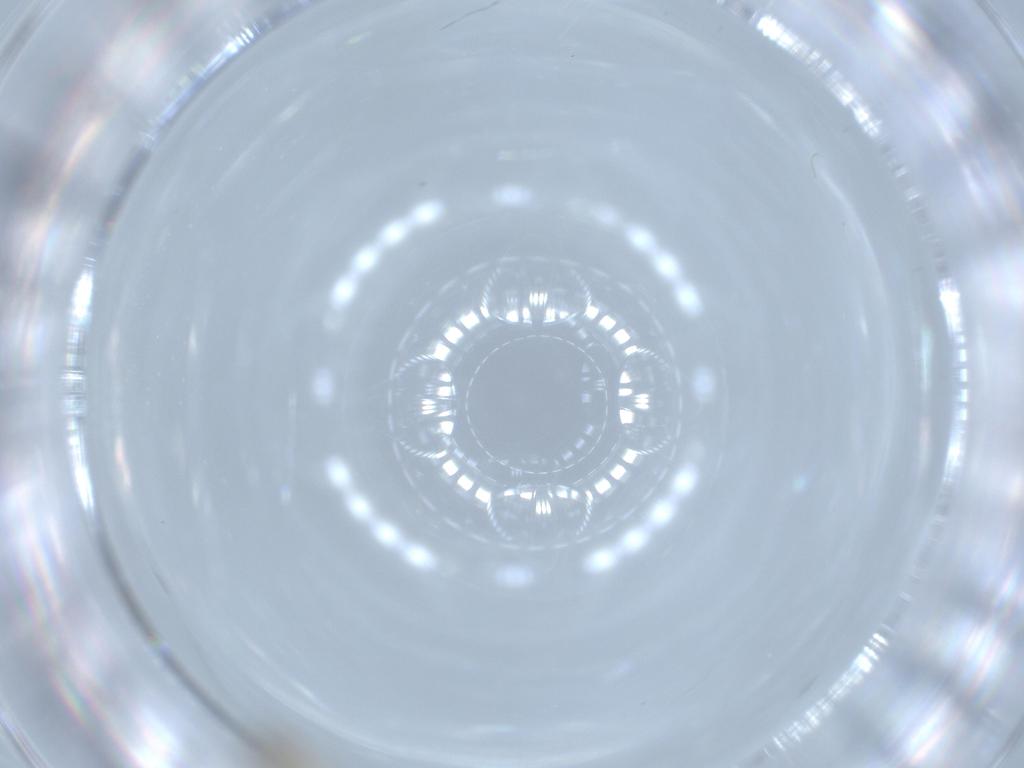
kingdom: Animalia
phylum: Arthropoda
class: Insecta
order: Diptera
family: Cecidomyiidae
